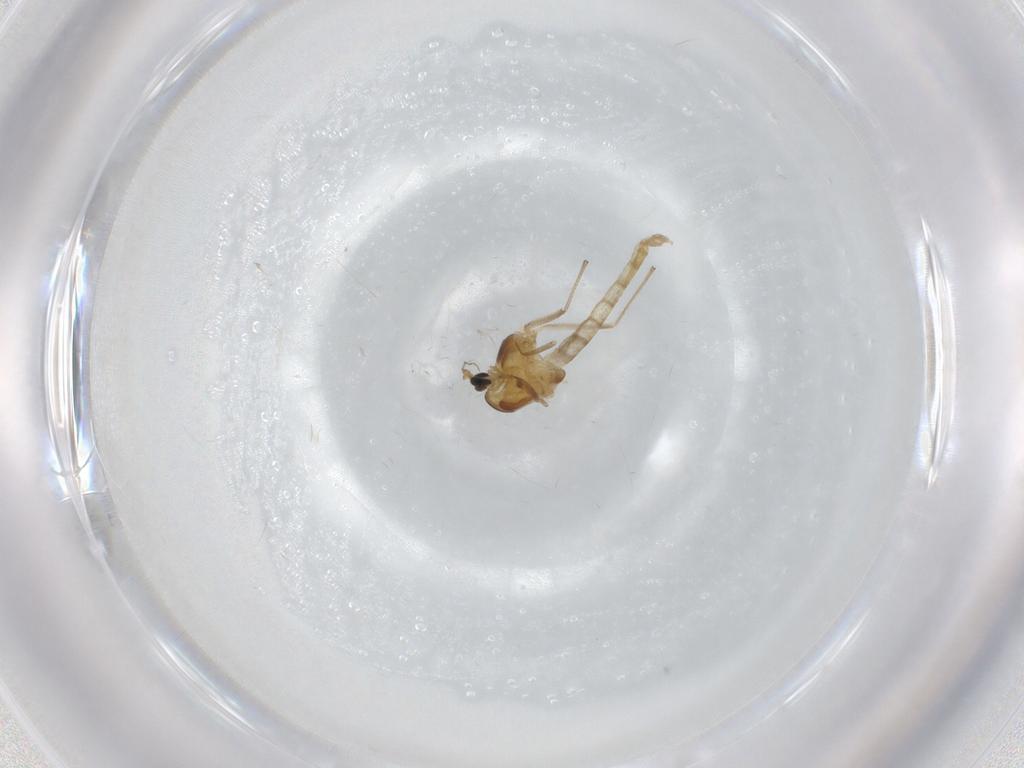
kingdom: Animalia
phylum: Arthropoda
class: Insecta
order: Diptera
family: Chironomidae
